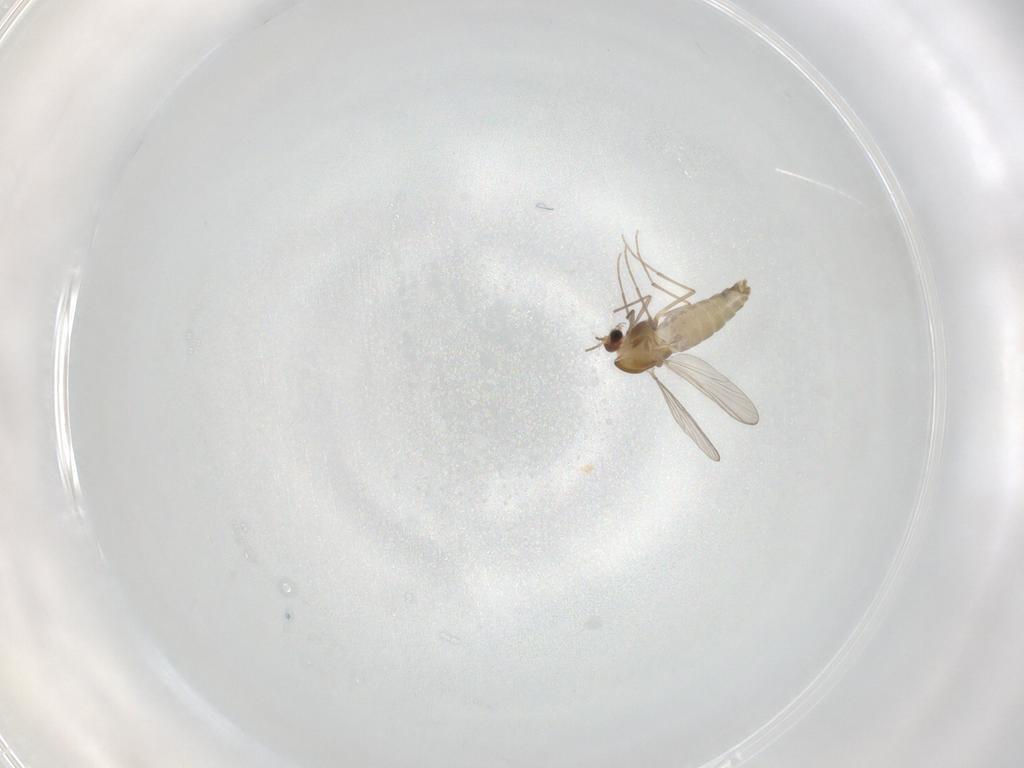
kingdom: Animalia
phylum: Arthropoda
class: Insecta
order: Diptera
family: Chironomidae
